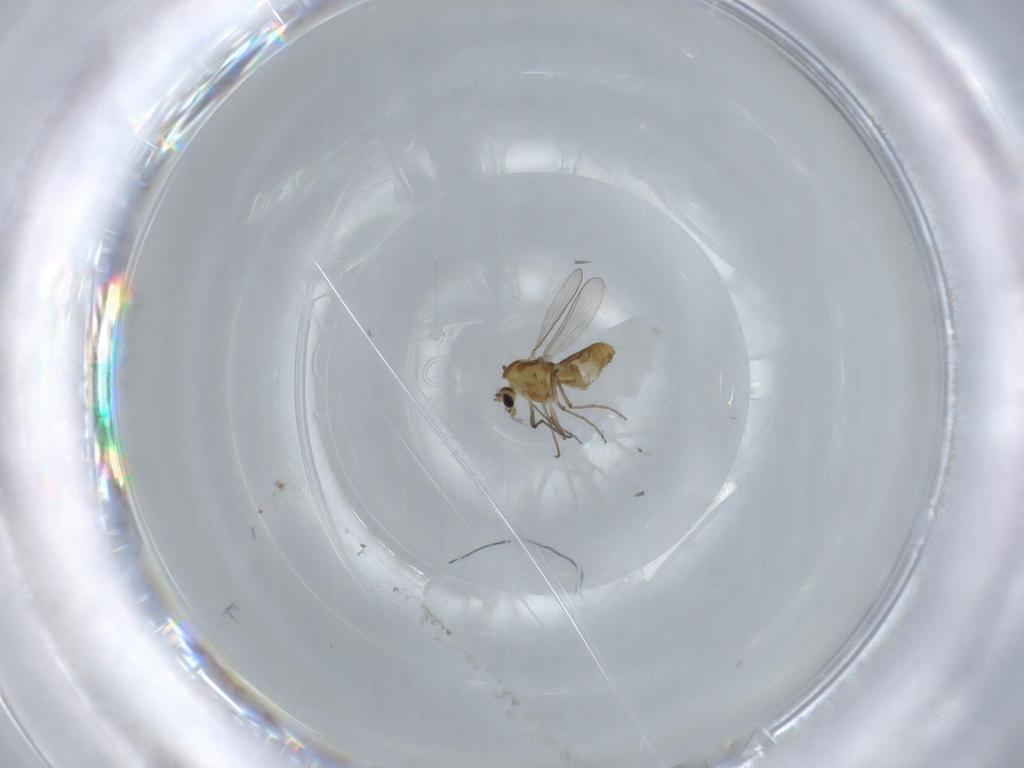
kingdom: Animalia
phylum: Arthropoda
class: Insecta
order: Diptera
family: Chironomidae
